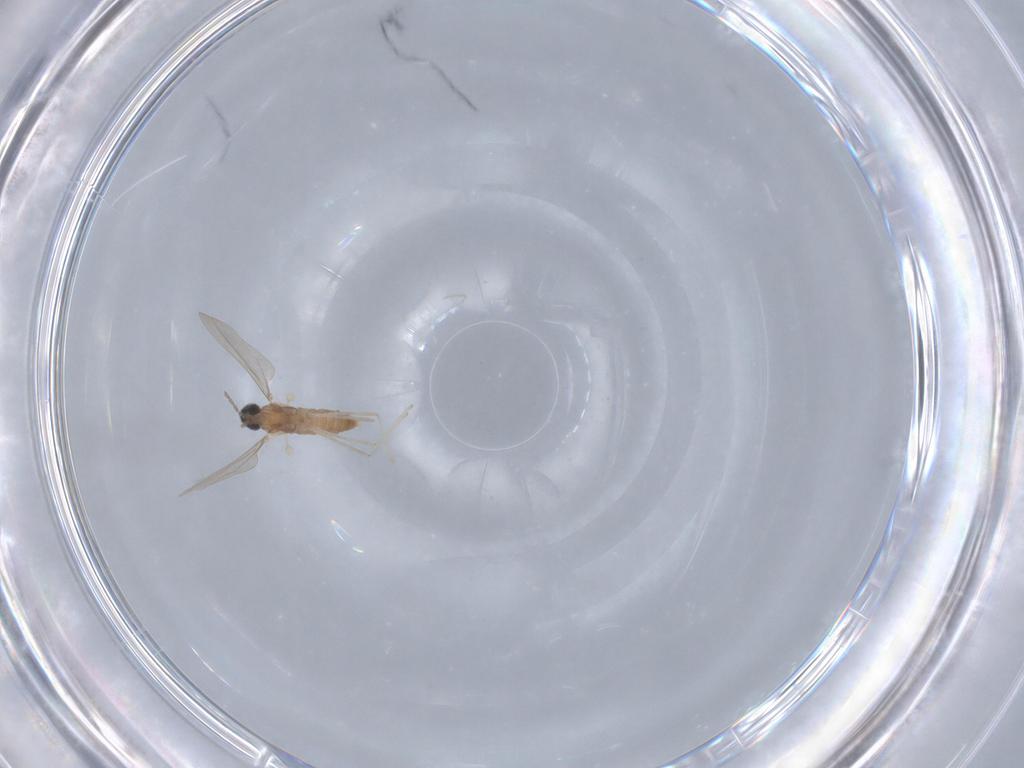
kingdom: Animalia
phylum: Arthropoda
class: Insecta
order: Diptera
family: Cecidomyiidae
